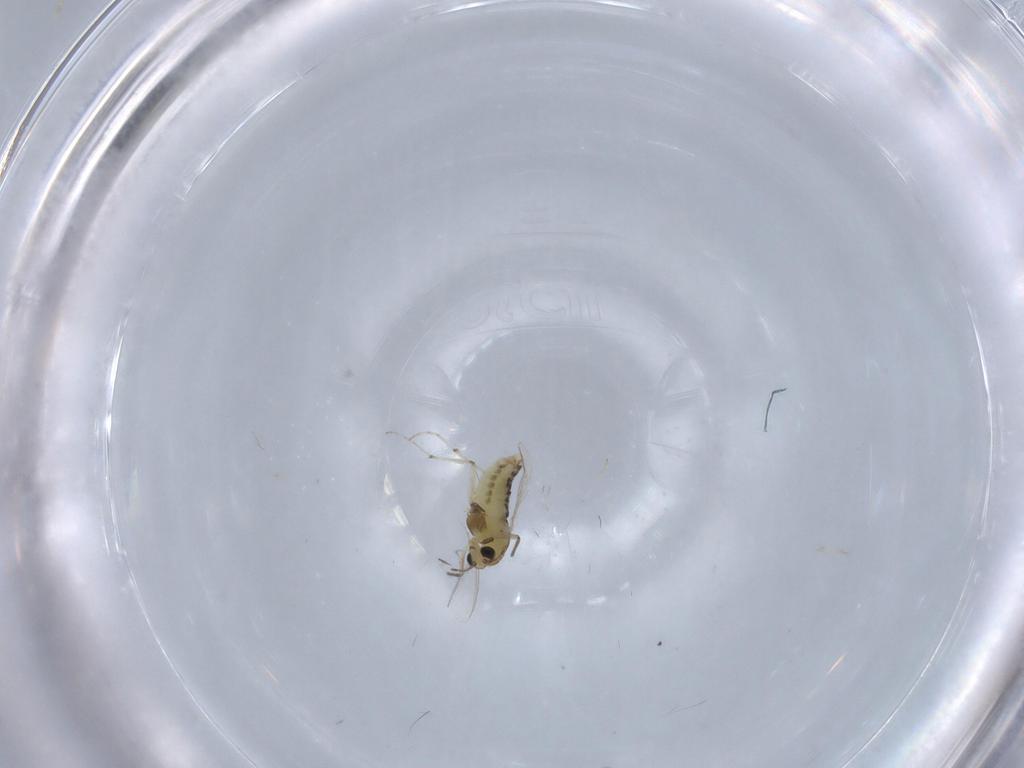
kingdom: Animalia
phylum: Arthropoda
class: Insecta
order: Diptera
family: Chironomidae
